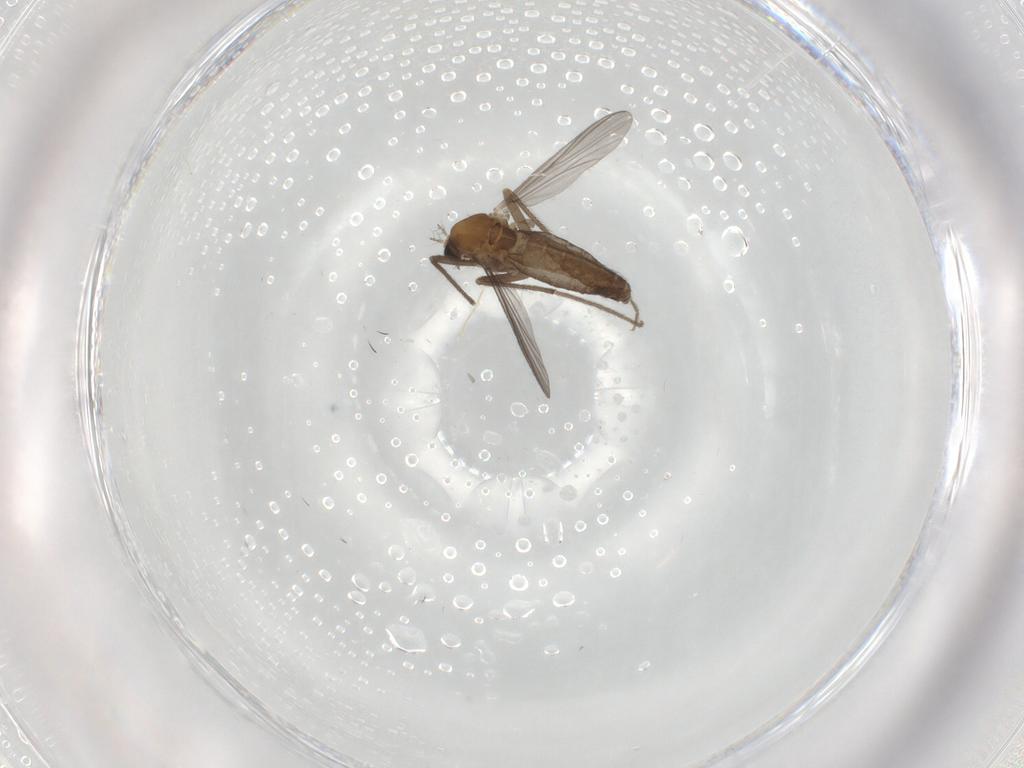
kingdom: Animalia
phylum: Arthropoda
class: Insecta
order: Diptera
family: Chironomidae
